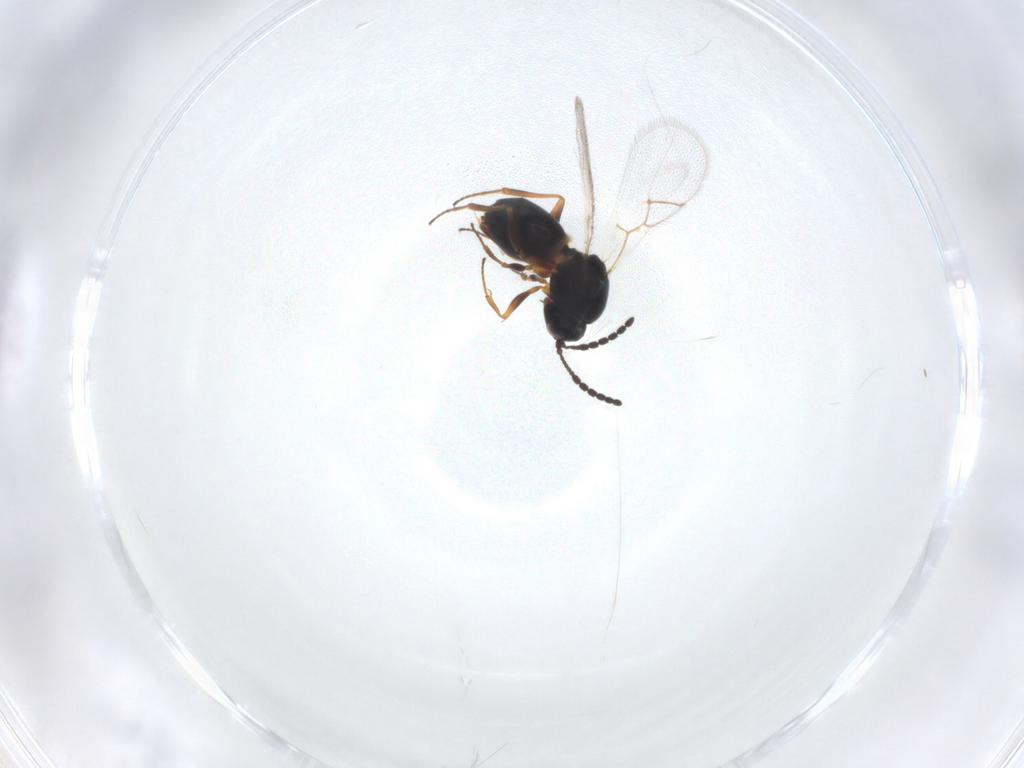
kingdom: Animalia
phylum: Arthropoda
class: Insecta
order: Hymenoptera
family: Figitidae
